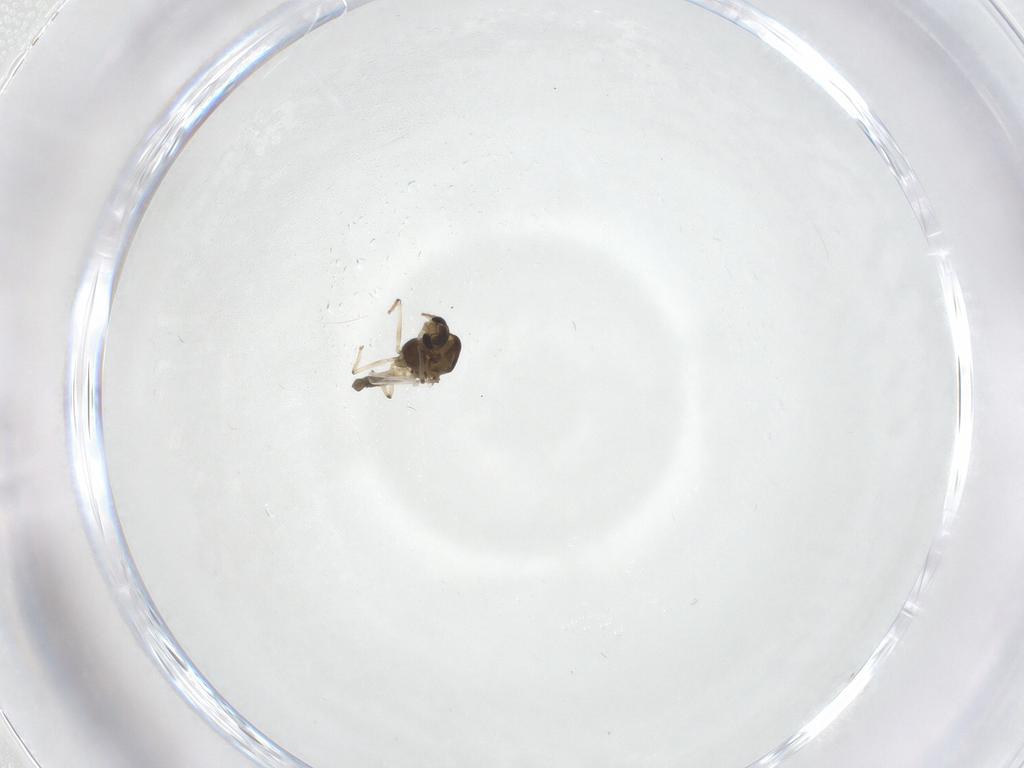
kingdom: Animalia
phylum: Arthropoda
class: Insecta
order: Diptera
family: Chironomidae
